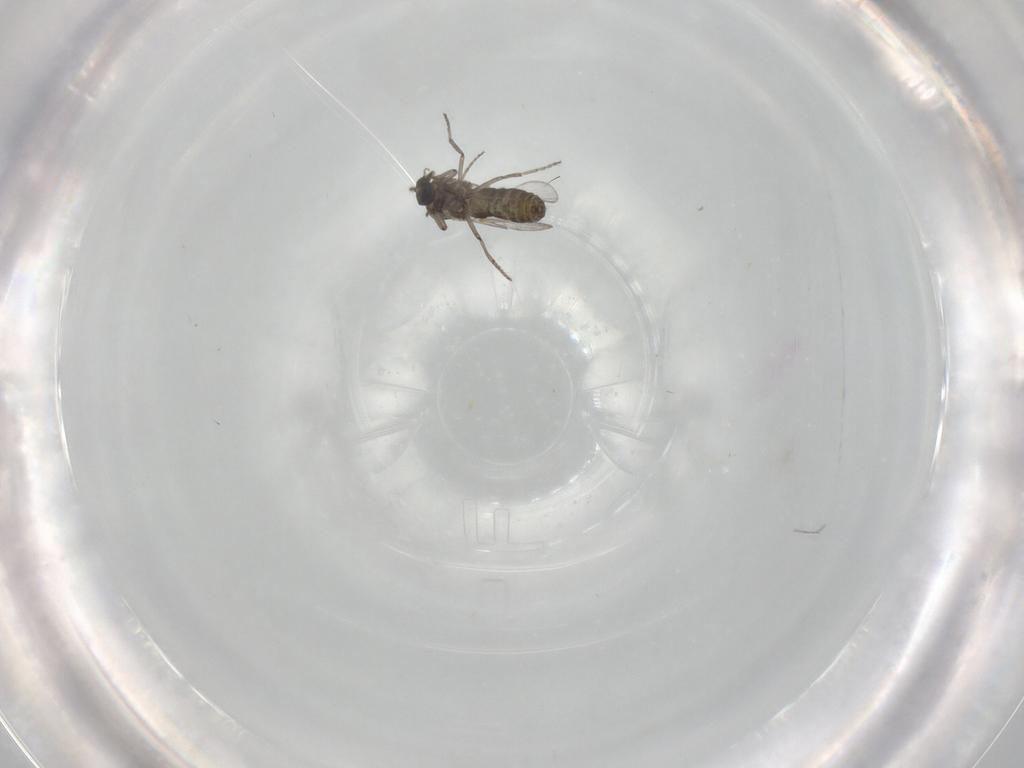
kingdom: Animalia
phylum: Arthropoda
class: Insecta
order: Diptera
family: Ceratopogonidae
